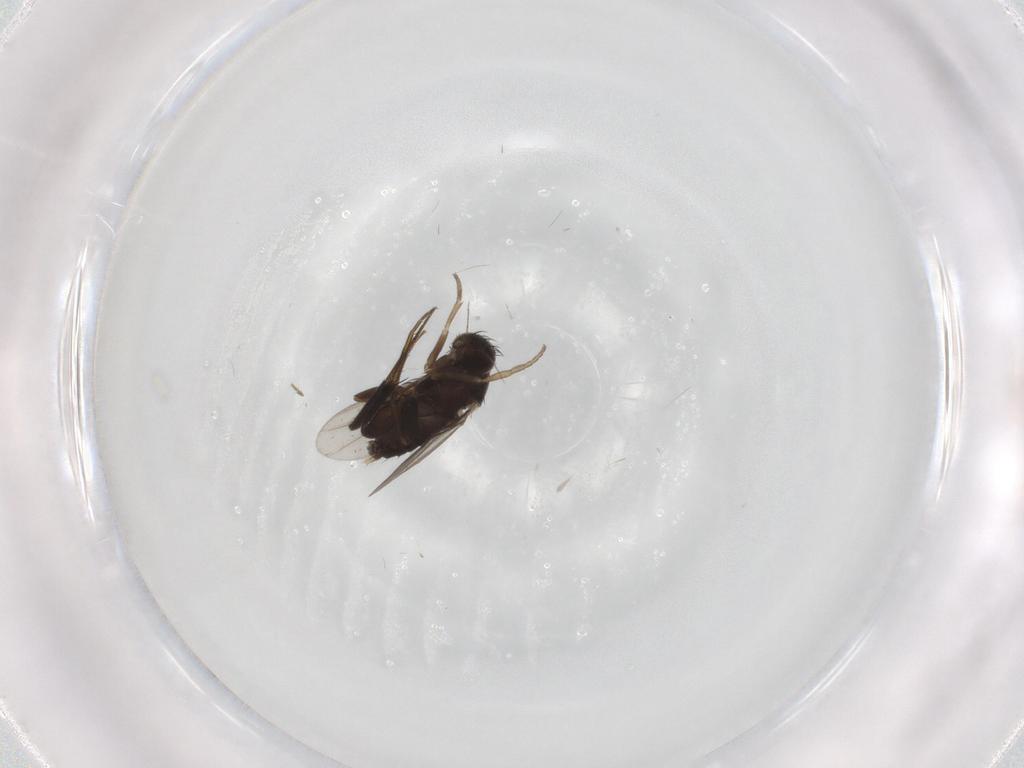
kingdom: Animalia
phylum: Arthropoda
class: Insecta
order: Diptera
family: Phoridae
